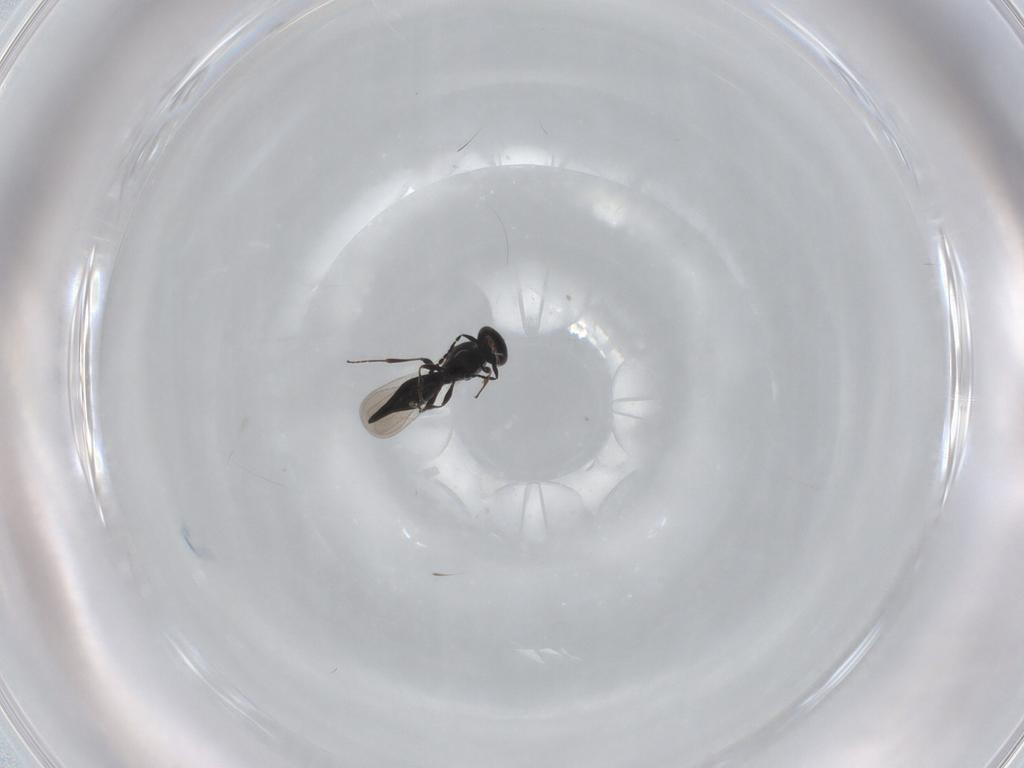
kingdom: Animalia
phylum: Arthropoda
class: Insecta
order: Hymenoptera
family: Platygastridae
